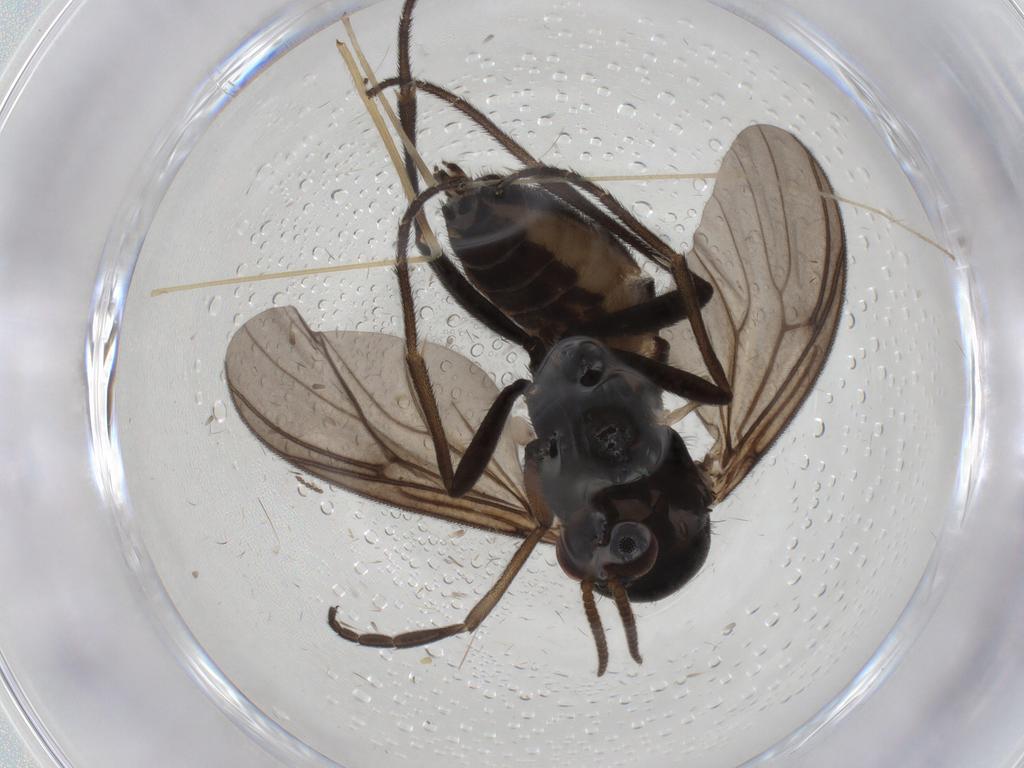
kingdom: Animalia
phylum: Arthropoda
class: Insecta
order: Diptera
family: Mycetophilidae
